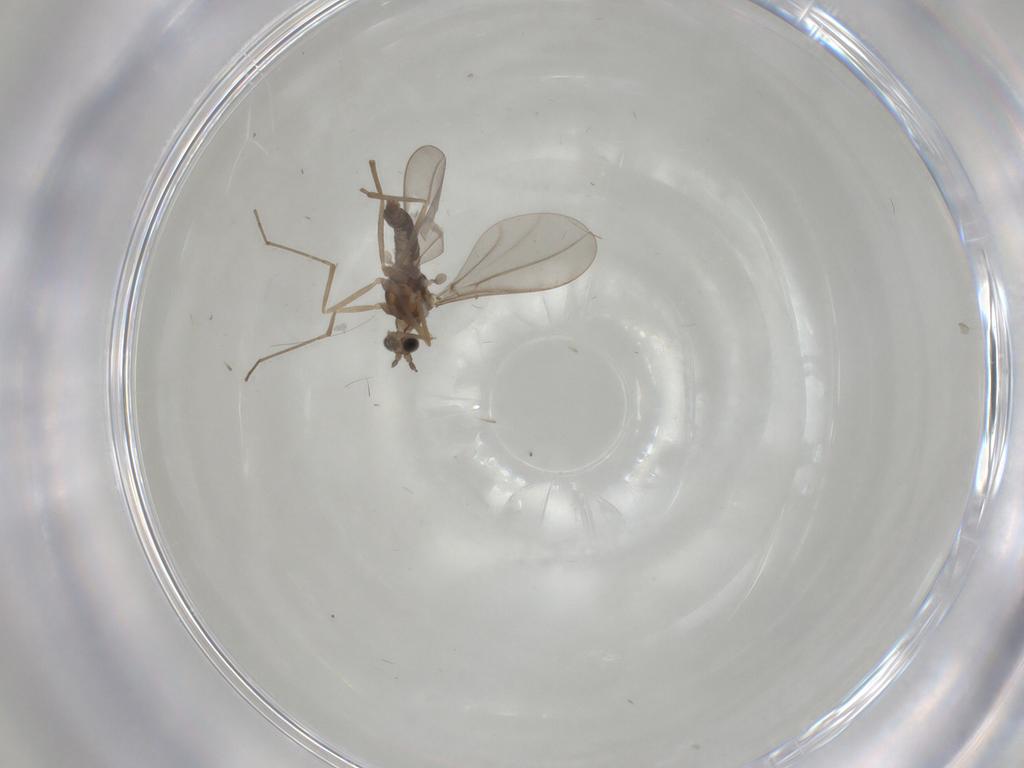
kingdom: Animalia
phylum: Arthropoda
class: Insecta
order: Diptera
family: Cecidomyiidae
